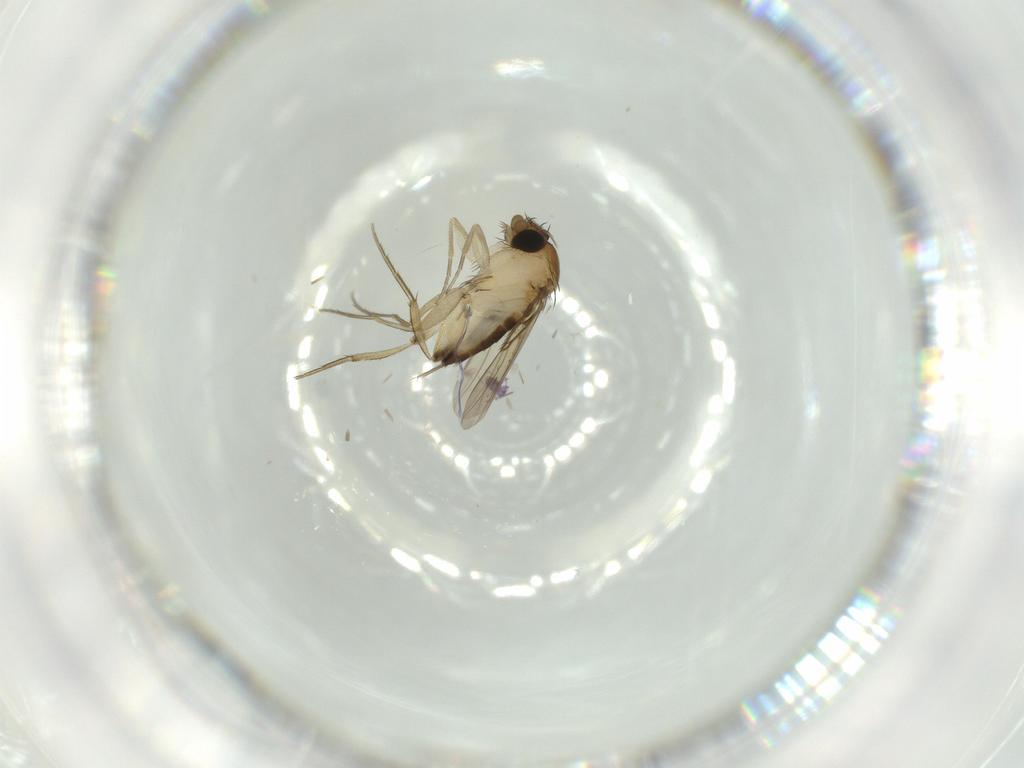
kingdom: Animalia
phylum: Arthropoda
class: Insecta
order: Diptera
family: Phoridae
